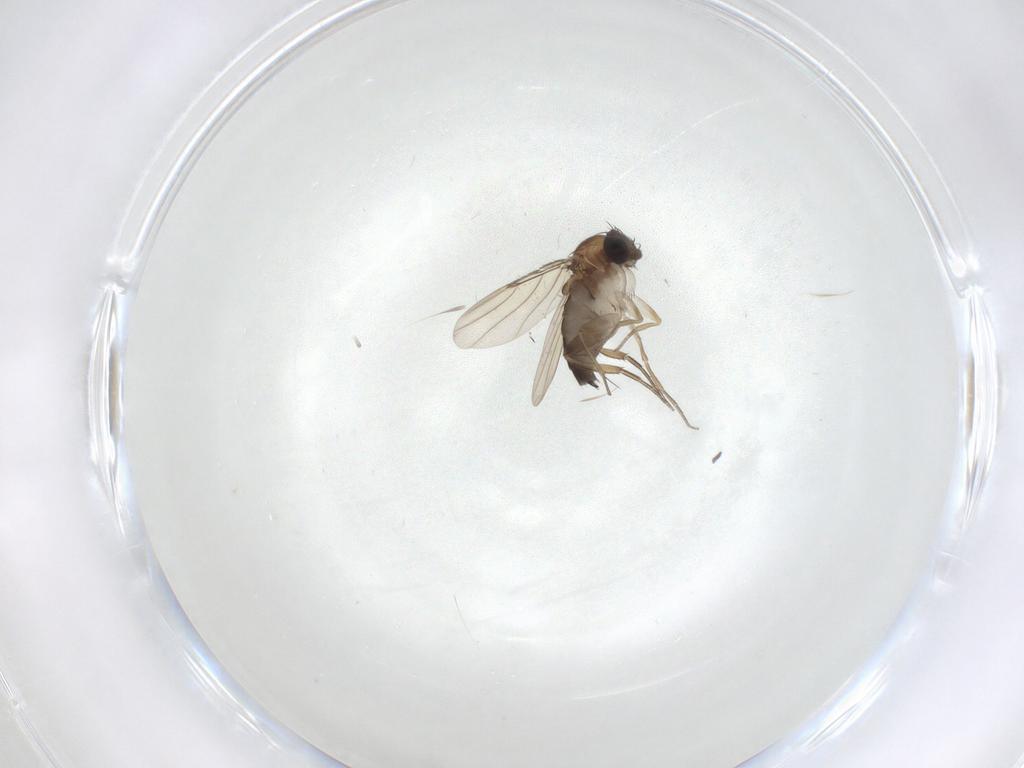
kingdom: Animalia
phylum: Arthropoda
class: Insecta
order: Diptera
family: Phoridae
